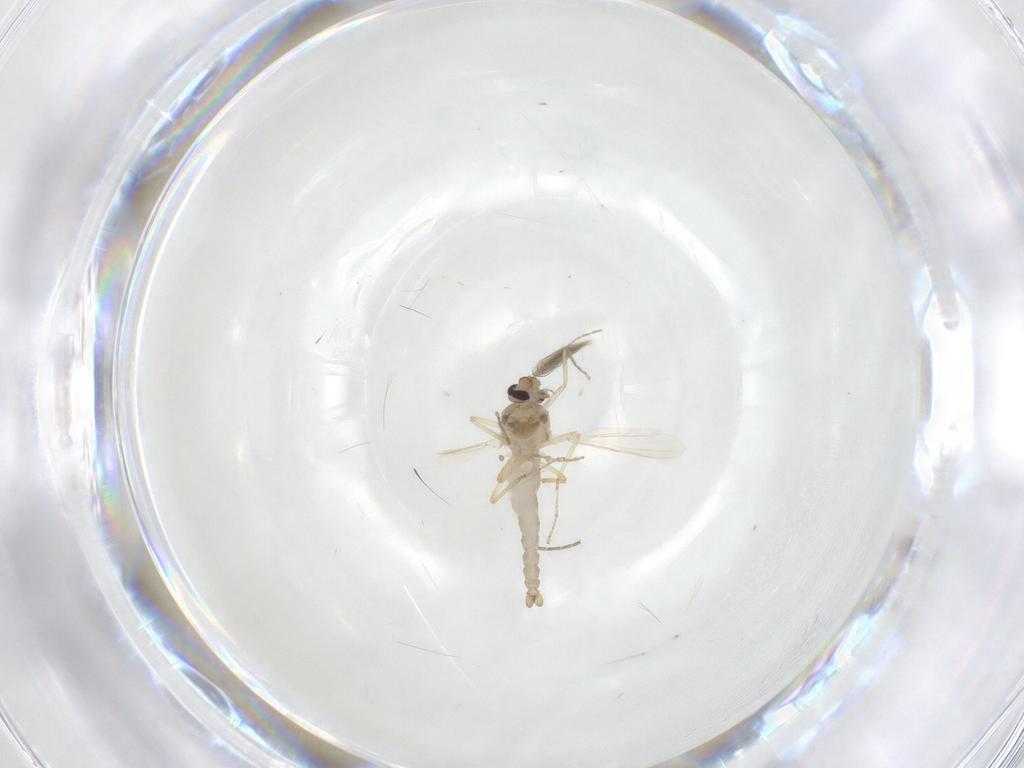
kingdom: Animalia
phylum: Arthropoda
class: Insecta
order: Diptera
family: Ceratopogonidae
